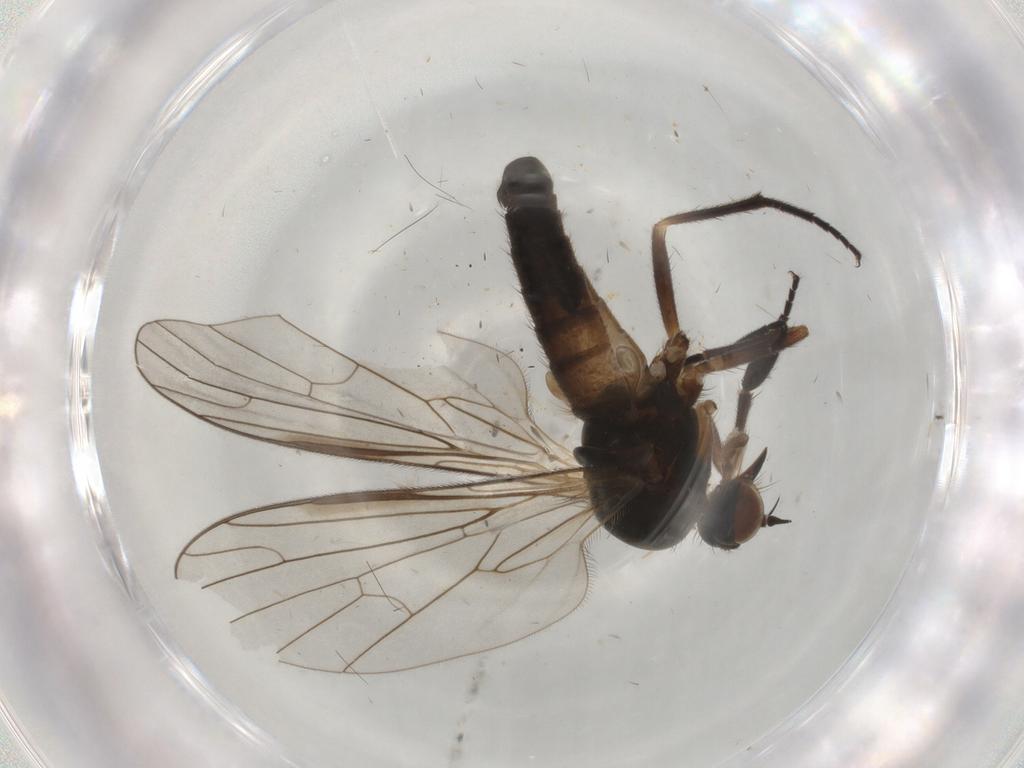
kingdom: Animalia
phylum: Arthropoda
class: Insecta
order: Diptera
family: Empididae
